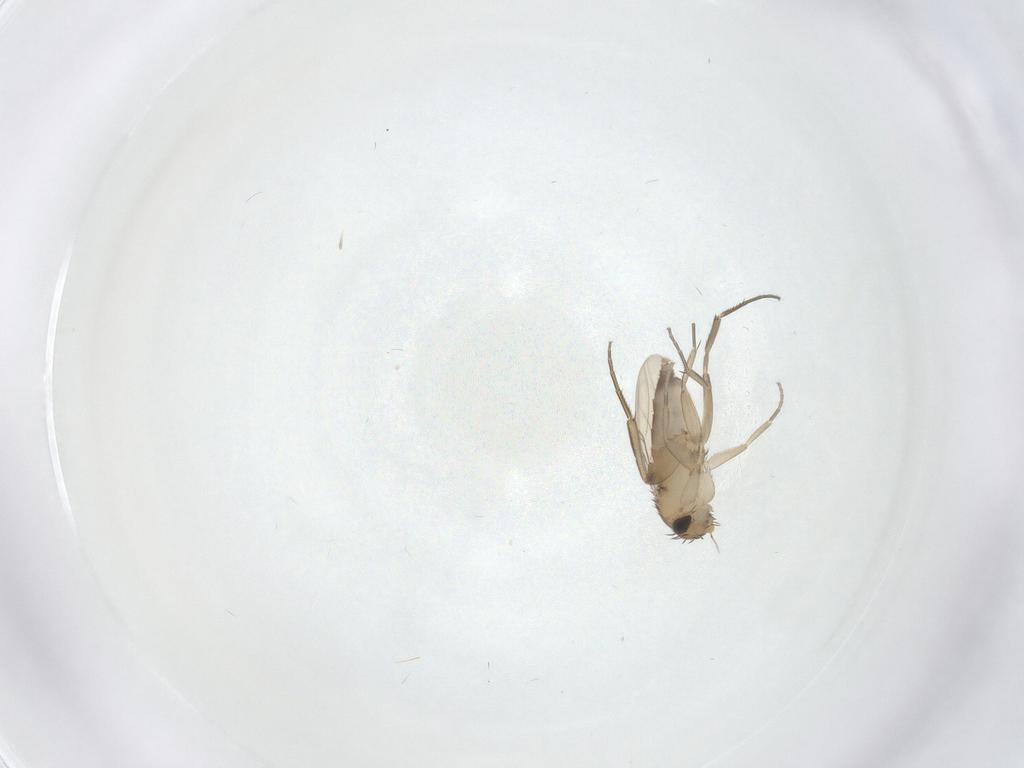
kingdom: Animalia
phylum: Arthropoda
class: Insecta
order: Diptera
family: Phoridae
